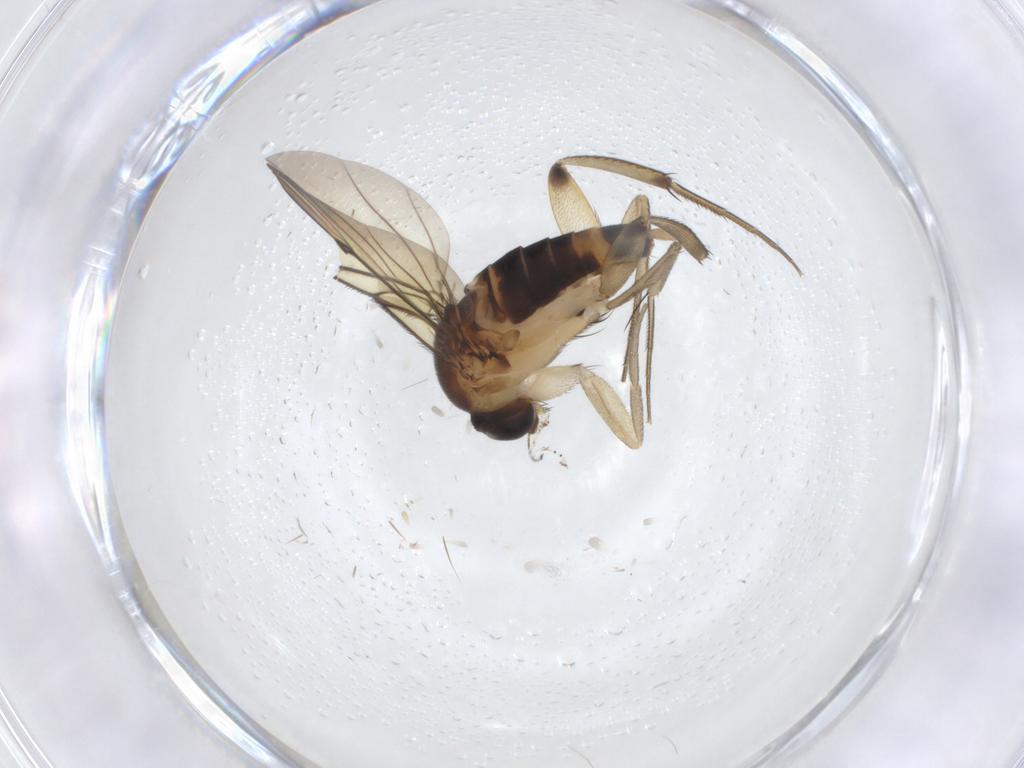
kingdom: Animalia
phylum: Arthropoda
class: Insecta
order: Diptera
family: Phoridae
